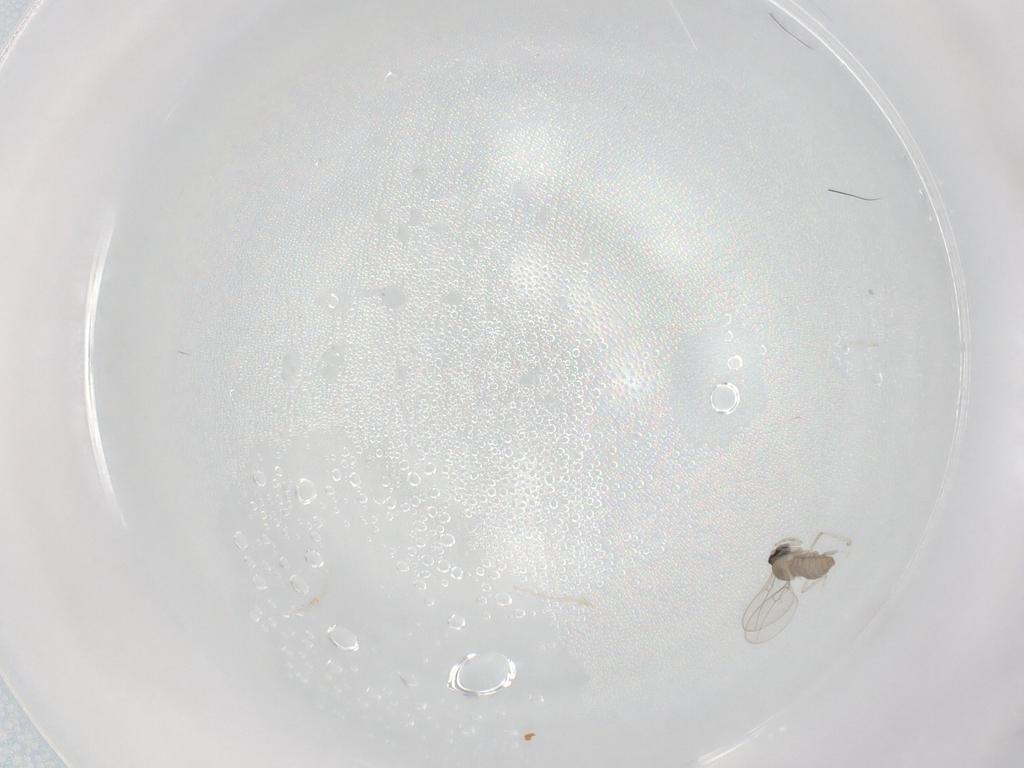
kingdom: Animalia
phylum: Arthropoda
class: Insecta
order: Diptera
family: Cecidomyiidae
